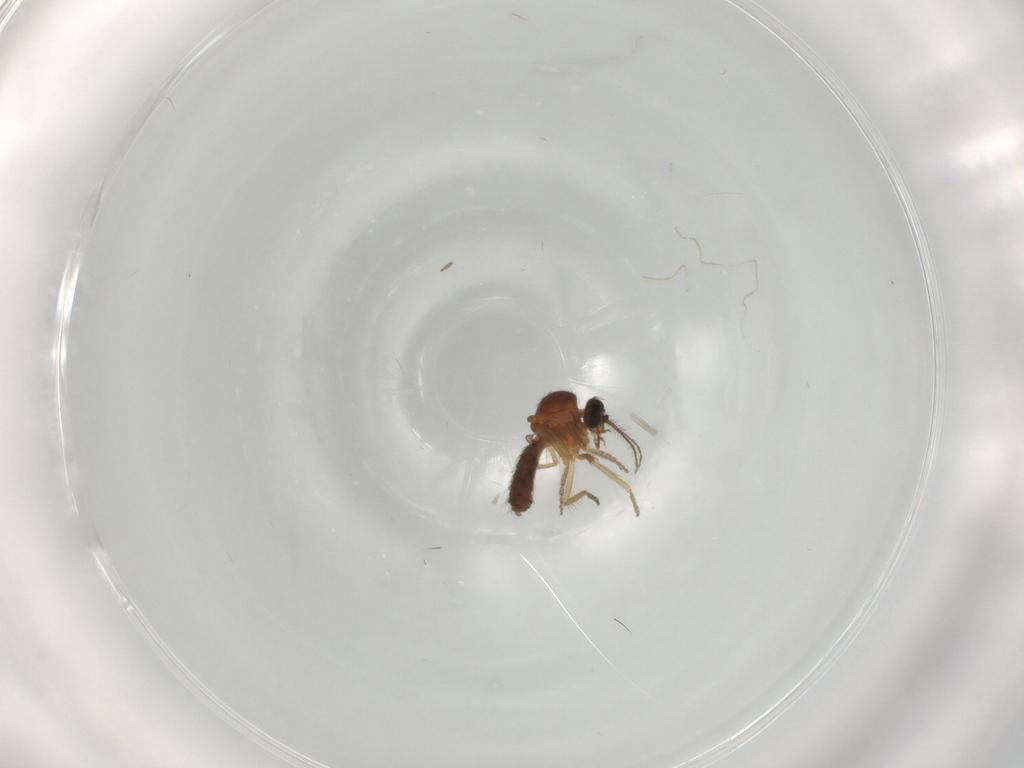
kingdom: Animalia
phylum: Arthropoda
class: Insecta
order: Diptera
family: Ceratopogonidae
